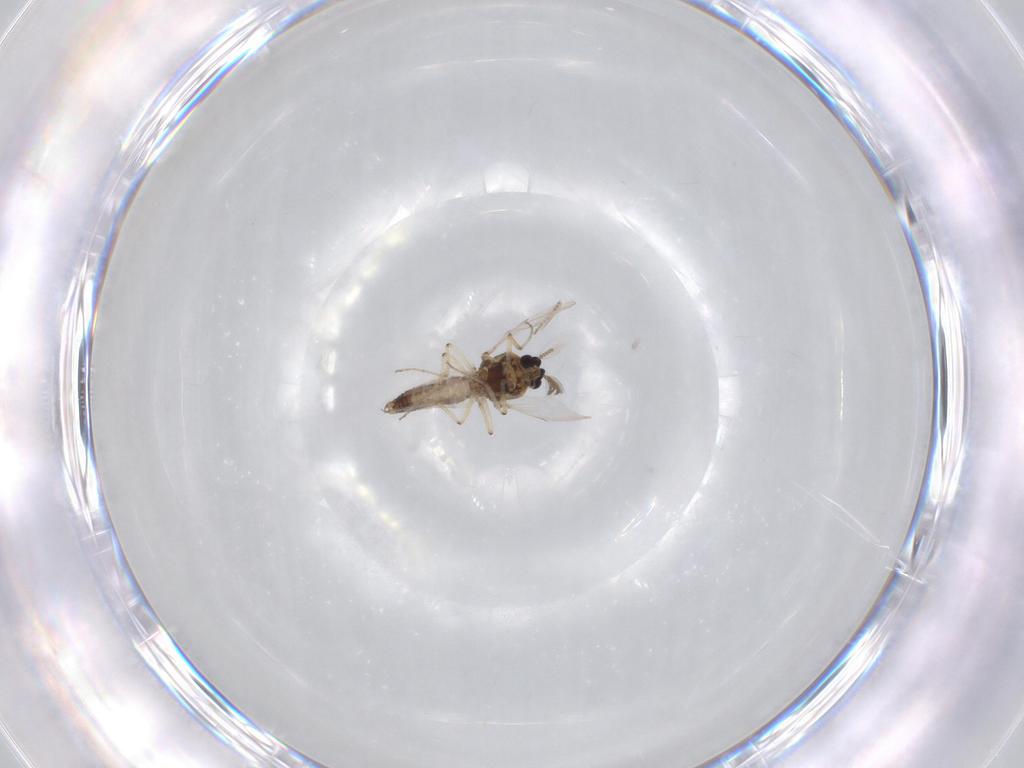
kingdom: Animalia
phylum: Arthropoda
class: Insecta
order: Diptera
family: Ceratopogonidae
